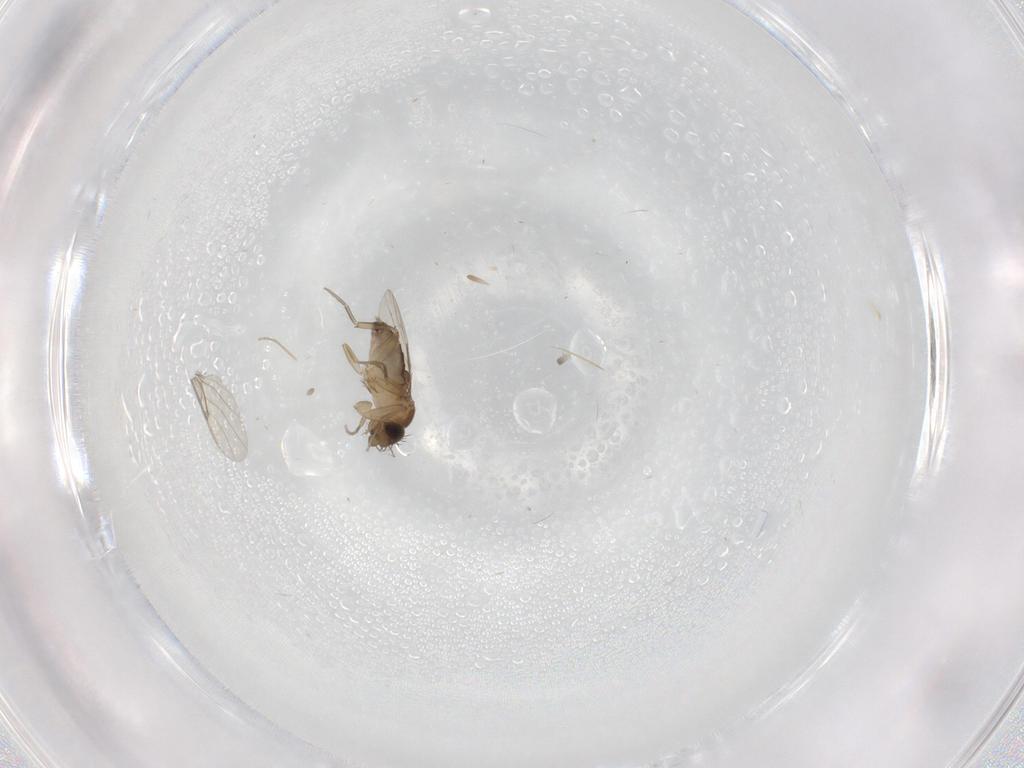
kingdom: Animalia
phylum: Arthropoda
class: Insecta
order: Diptera
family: Phoridae
